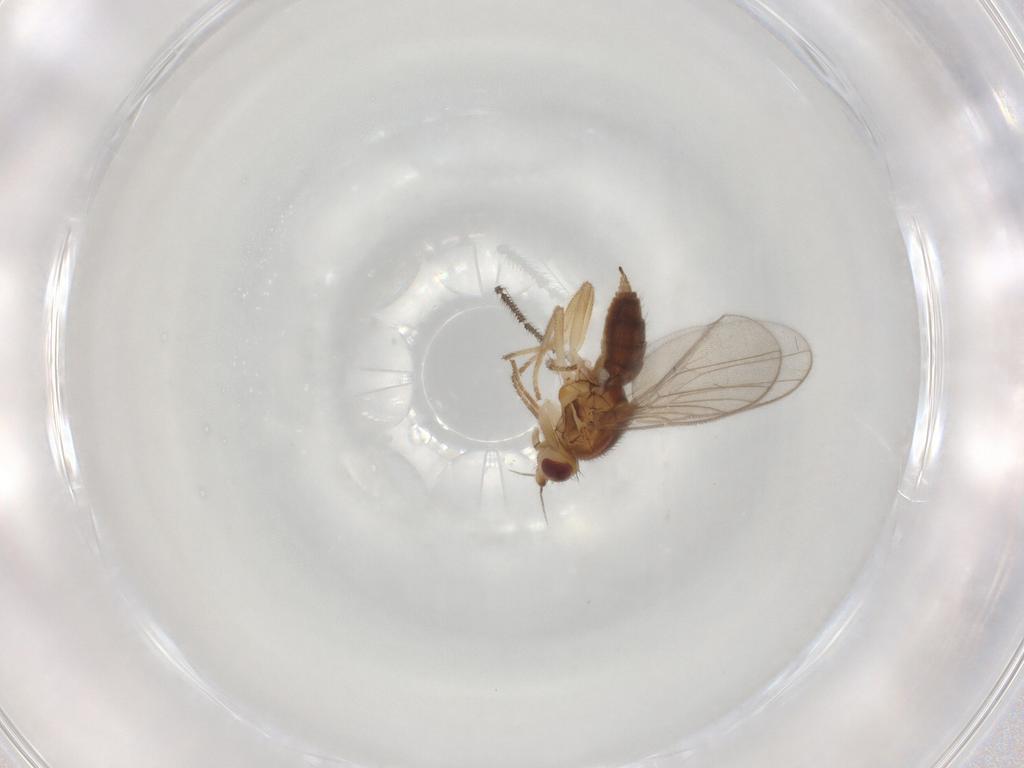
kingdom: Animalia
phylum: Arthropoda
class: Insecta
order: Diptera
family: Chloropidae
